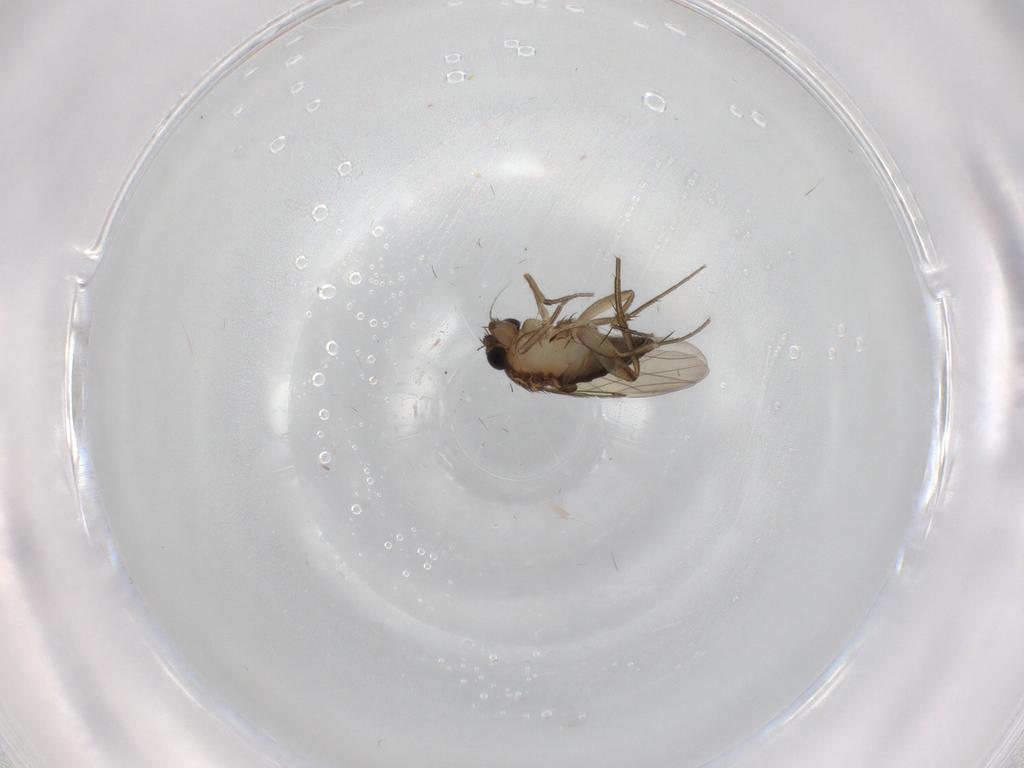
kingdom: Animalia
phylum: Arthropoda
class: Insecta
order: Diptera
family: Phoridae
